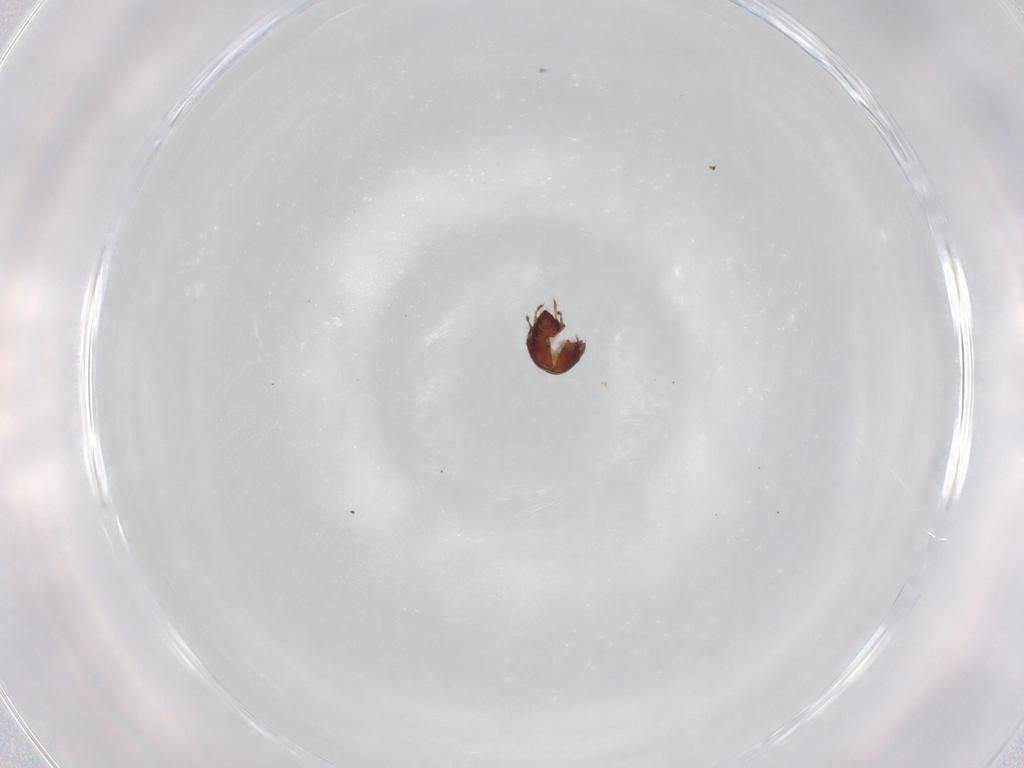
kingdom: Animalia
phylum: Arthropoda
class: Arachnida
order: Sarcoptiformes
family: Ceratozetidae
